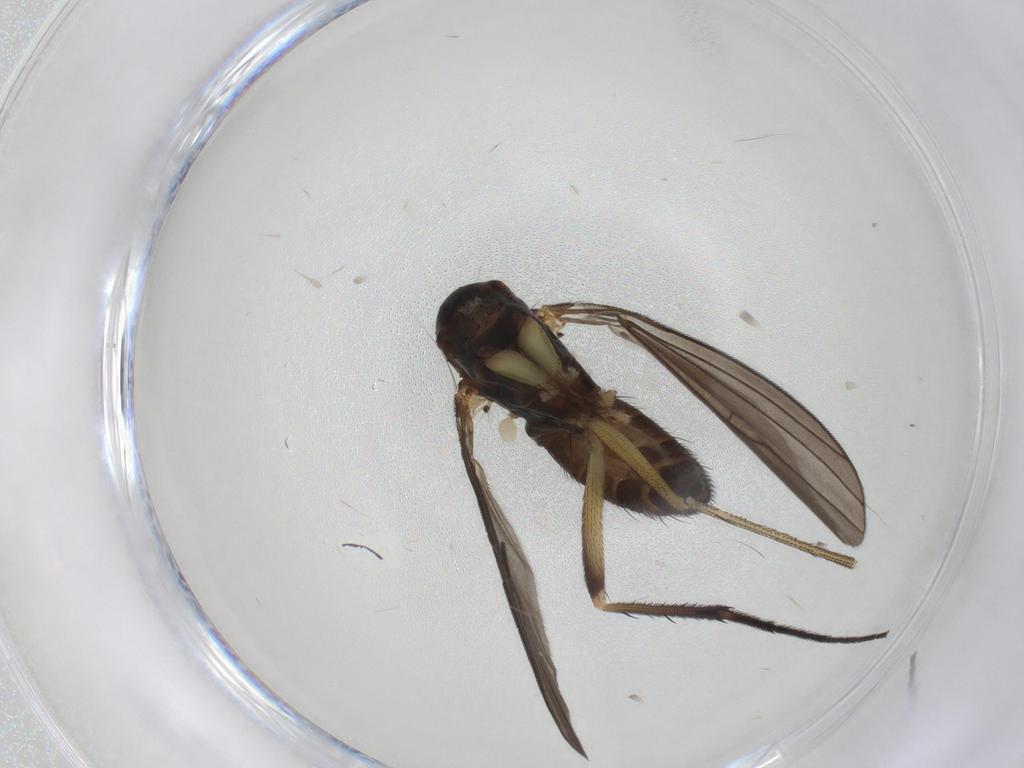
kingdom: Animalia
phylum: Arthropoda
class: Insecta
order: Diptera
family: Dolichopodidae
